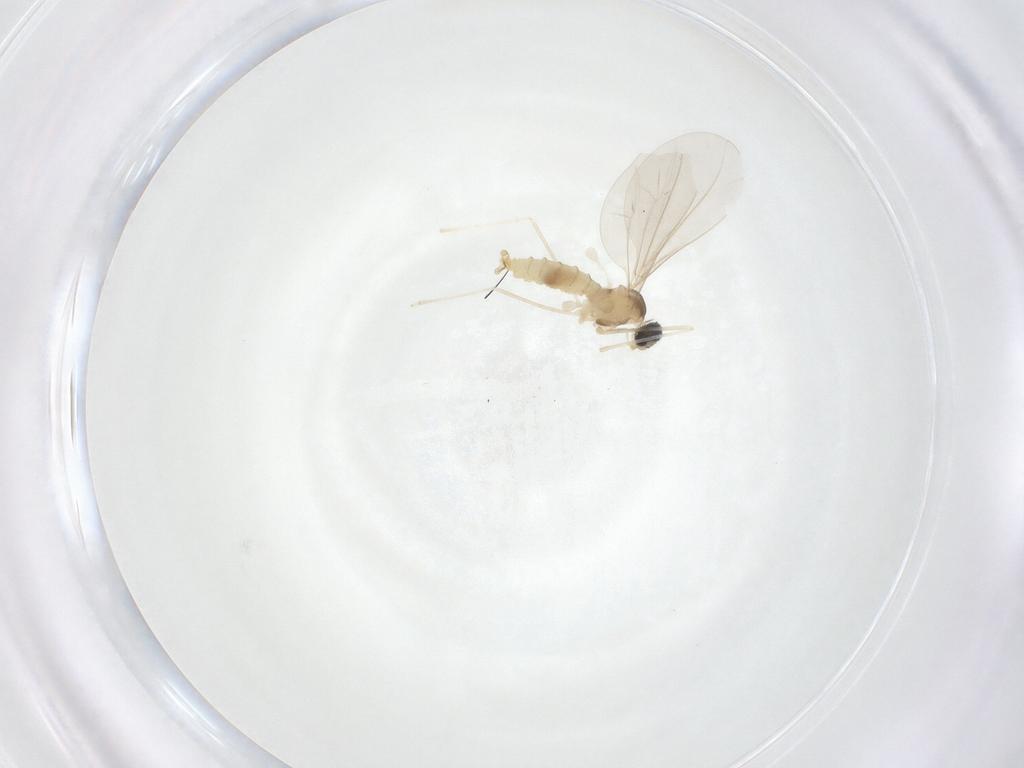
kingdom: Animalia
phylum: Arthropoda
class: Insecta
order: Diptera
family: Cecidomyiidae
